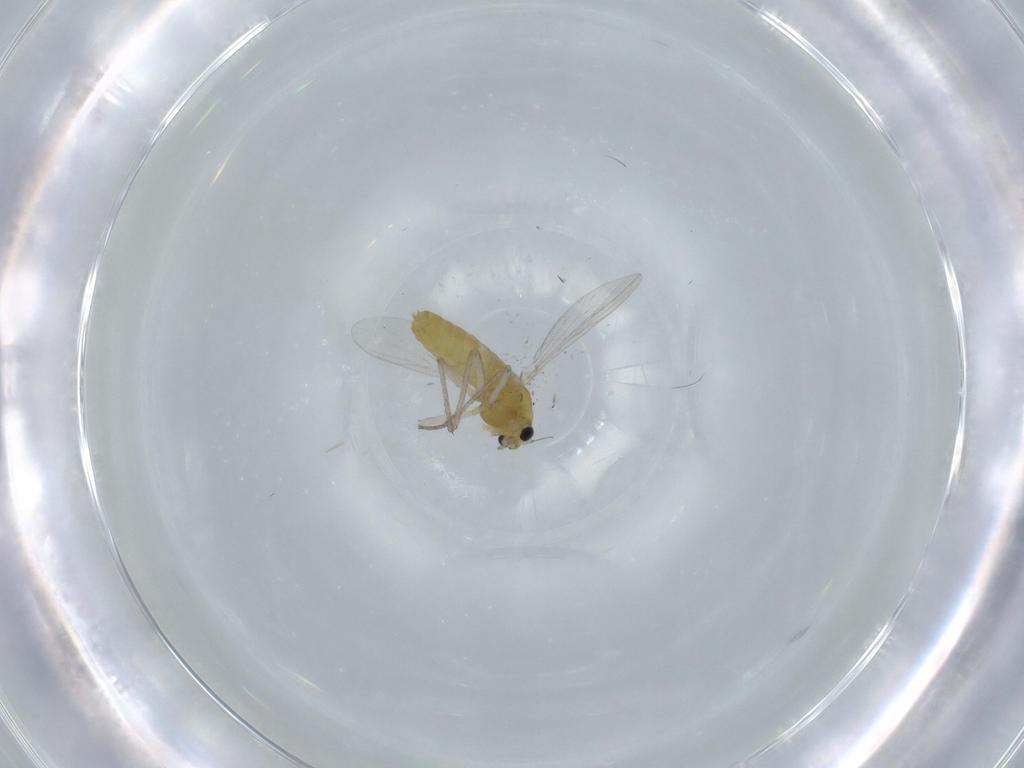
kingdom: Animalia
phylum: Arthropoda
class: Insecta
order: Diptera
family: Chironomidae
